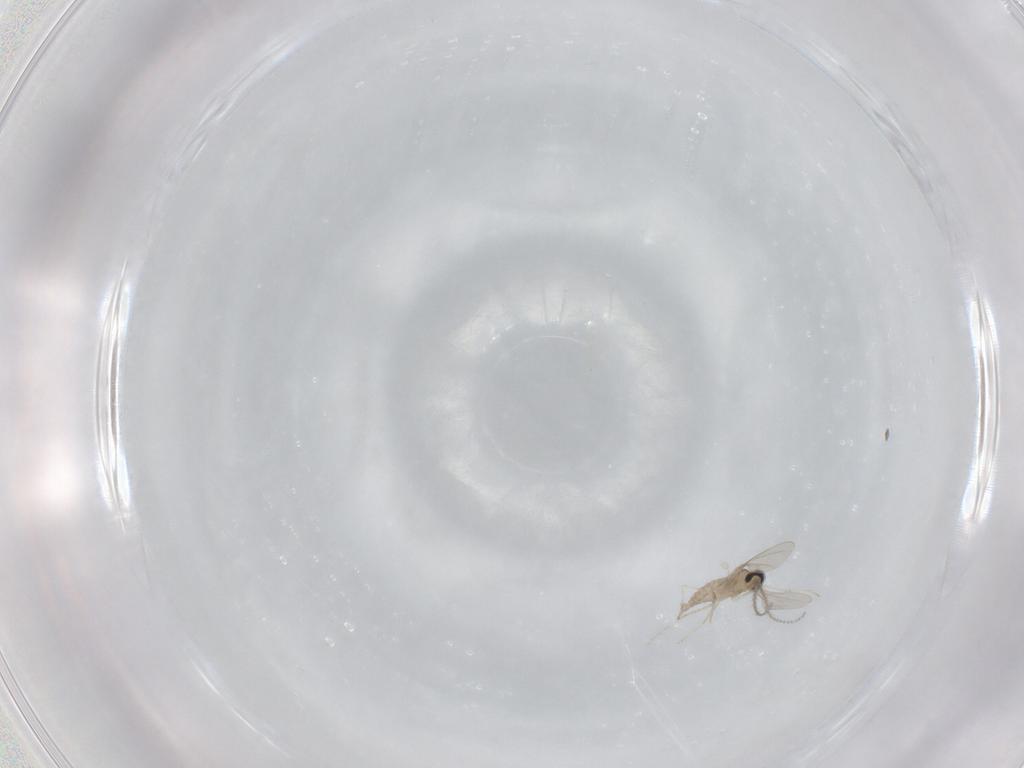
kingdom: Animalia
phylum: Arthropoda
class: Insecta
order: Diptera
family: Cecidomyiidae
